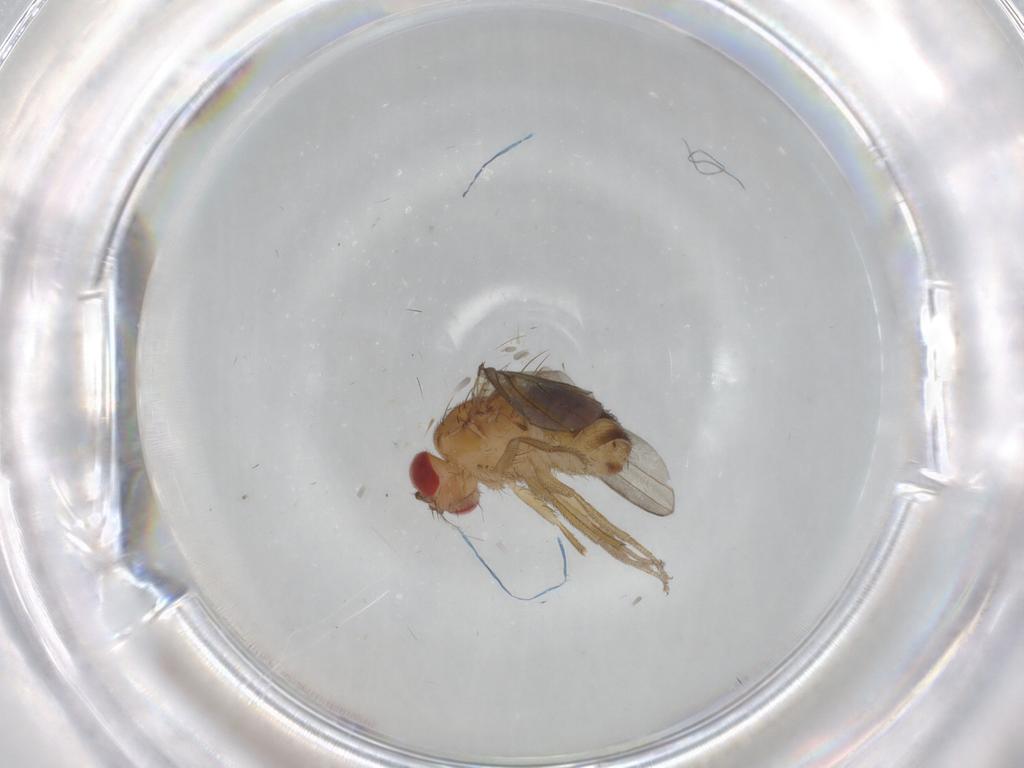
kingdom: Animalia
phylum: Arthropoda
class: Insecta
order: Diptera
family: Drosophilidae
